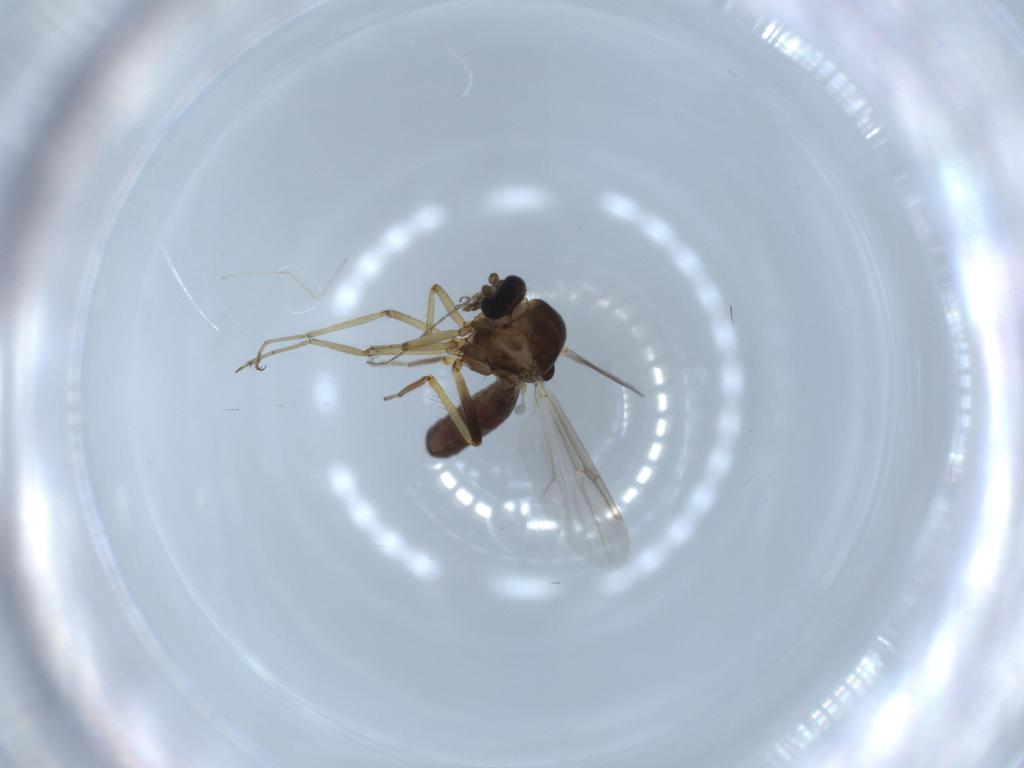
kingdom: Animalia
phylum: Arthropoda
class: Insecta
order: Diptera
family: Ceratopogonidae
